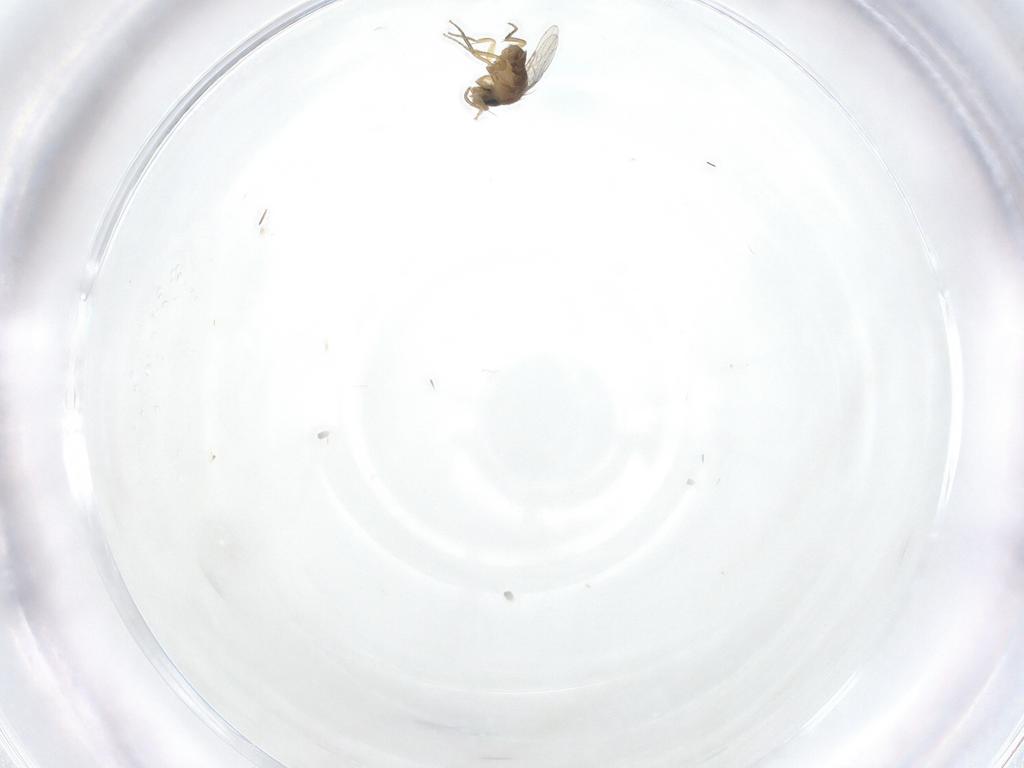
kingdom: Animalia
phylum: Arthropoda
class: Insecta
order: Diptera
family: Sciaridae
